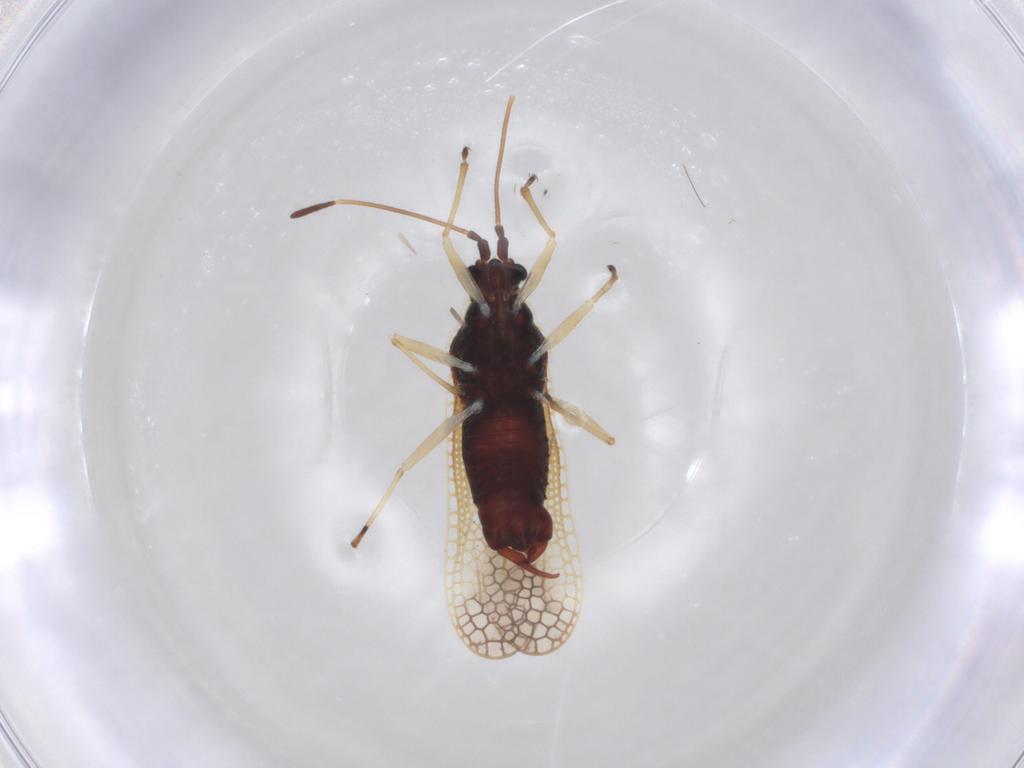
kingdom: Animalia
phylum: Arthropoda
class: Insecta
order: Hemiptera
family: Tingidae
